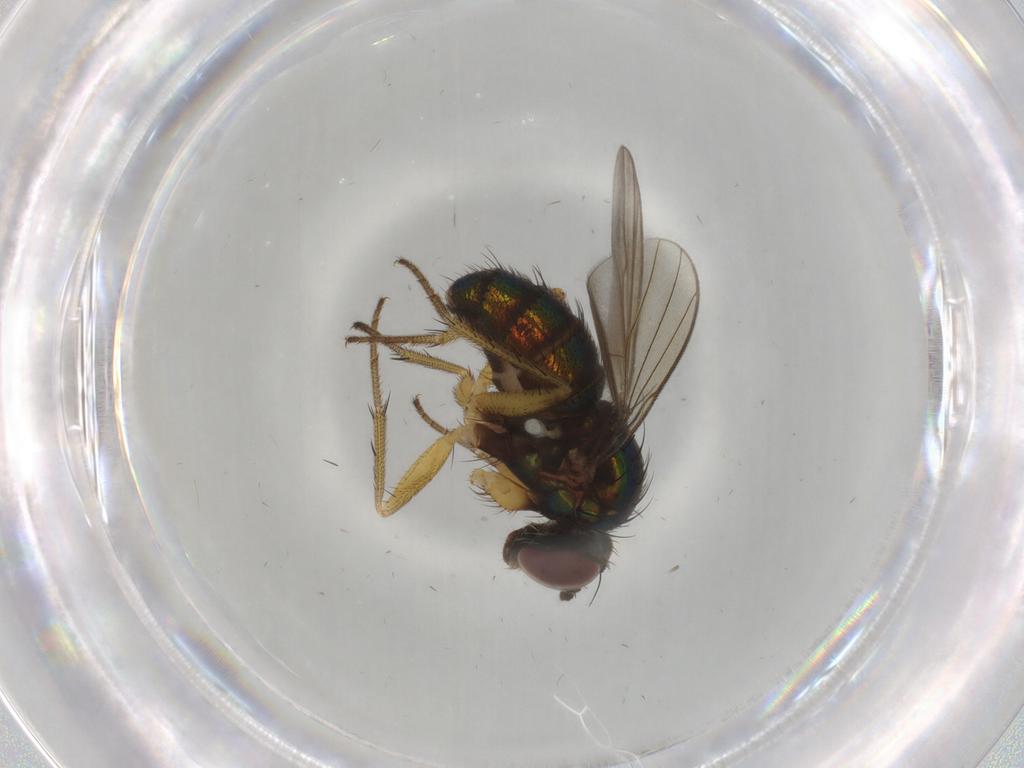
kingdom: Animalia
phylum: Arthropoda
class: Insecta
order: Diptera
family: Dolichopodidae
